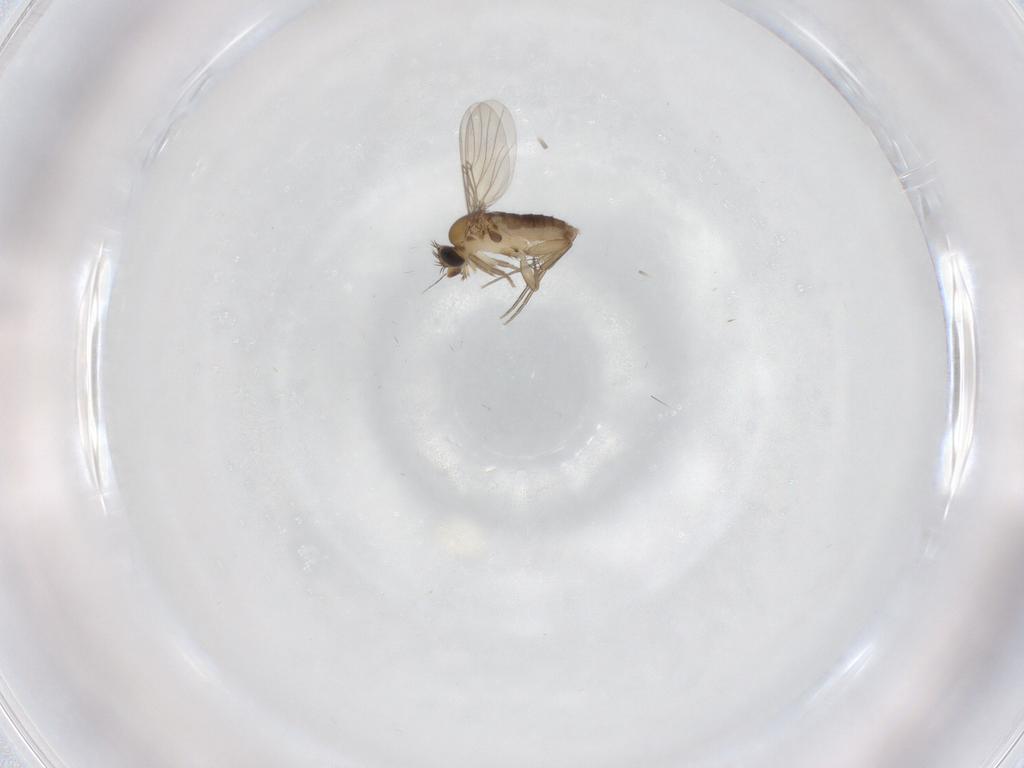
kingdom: Animalia
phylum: Arthropoda
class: Insecta
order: Diptera
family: Phoridae
